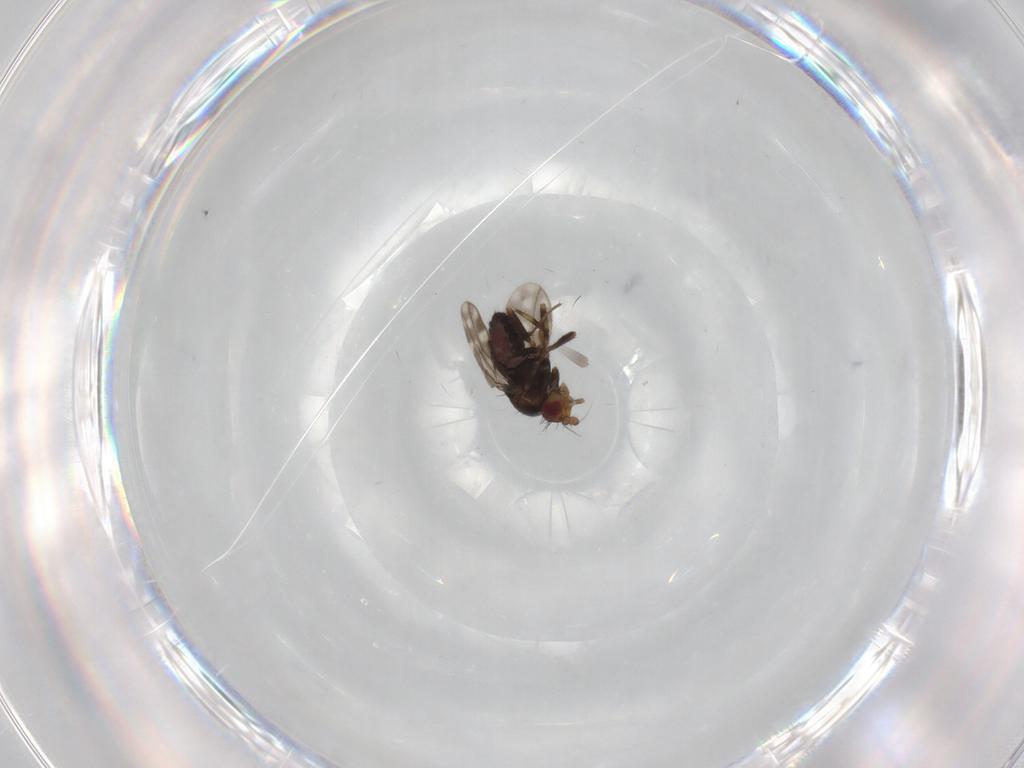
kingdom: Animalia
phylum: Arthropoda
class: Insecta
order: Diptera
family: Sphaeroceridae
